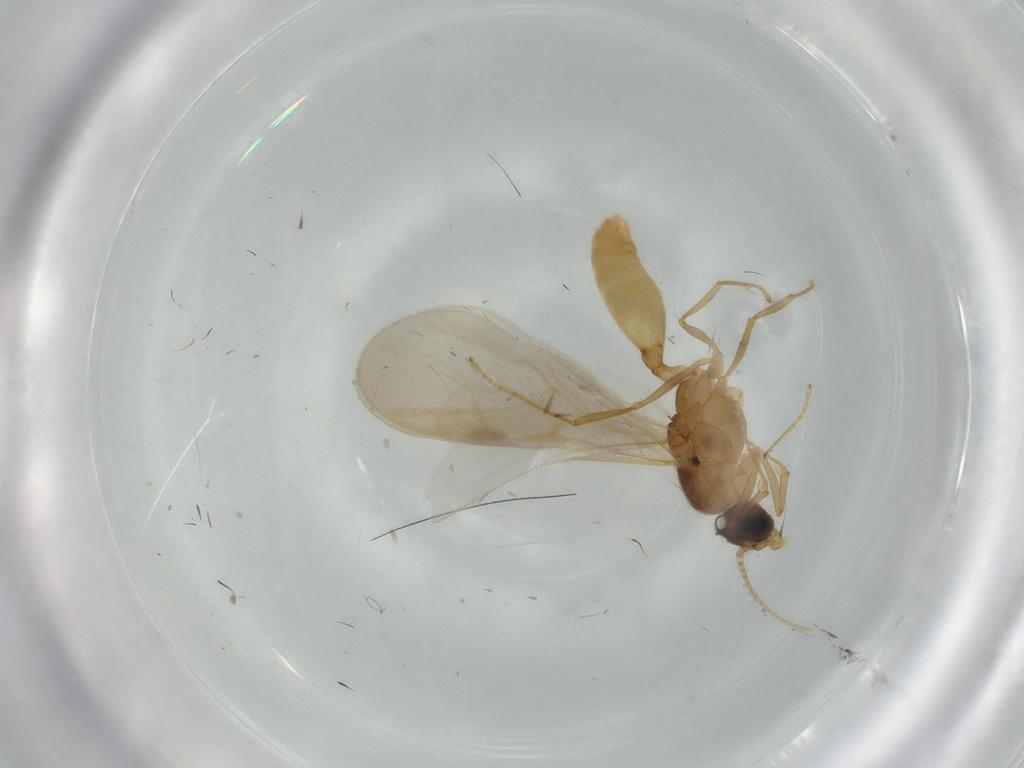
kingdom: Animalia
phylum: Arthropoda
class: Insecta
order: Hymenoptera
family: Formicidae
